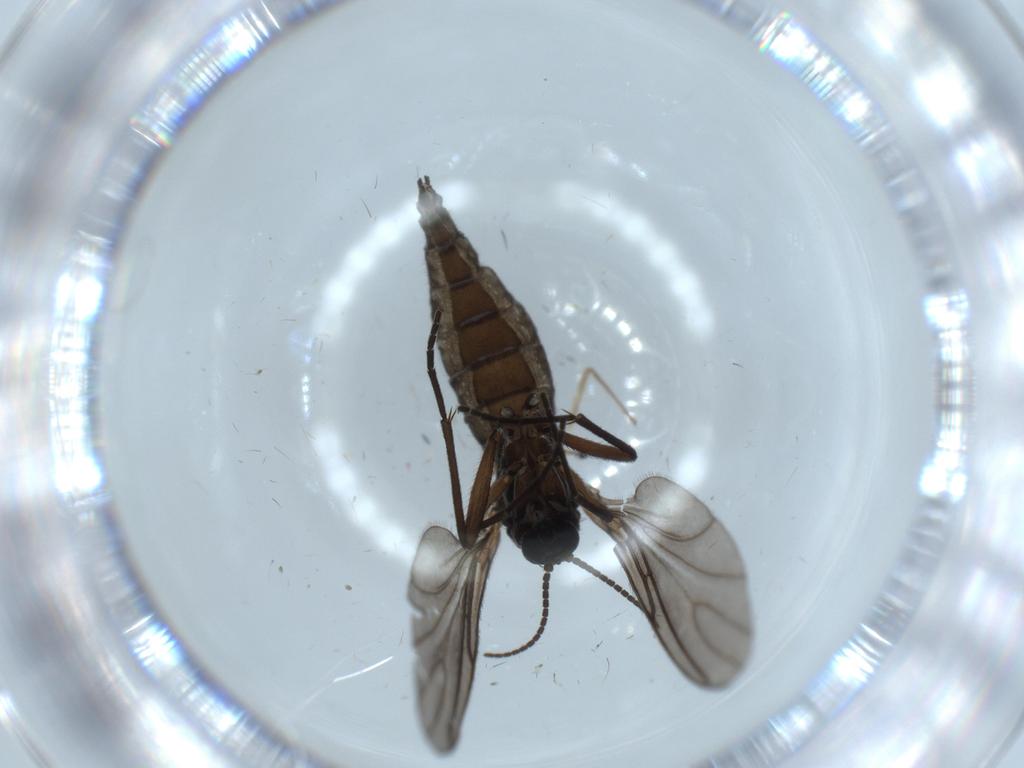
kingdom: Animalia
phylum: Arthropoda
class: Insecta
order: Diptera
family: Sciaridae
